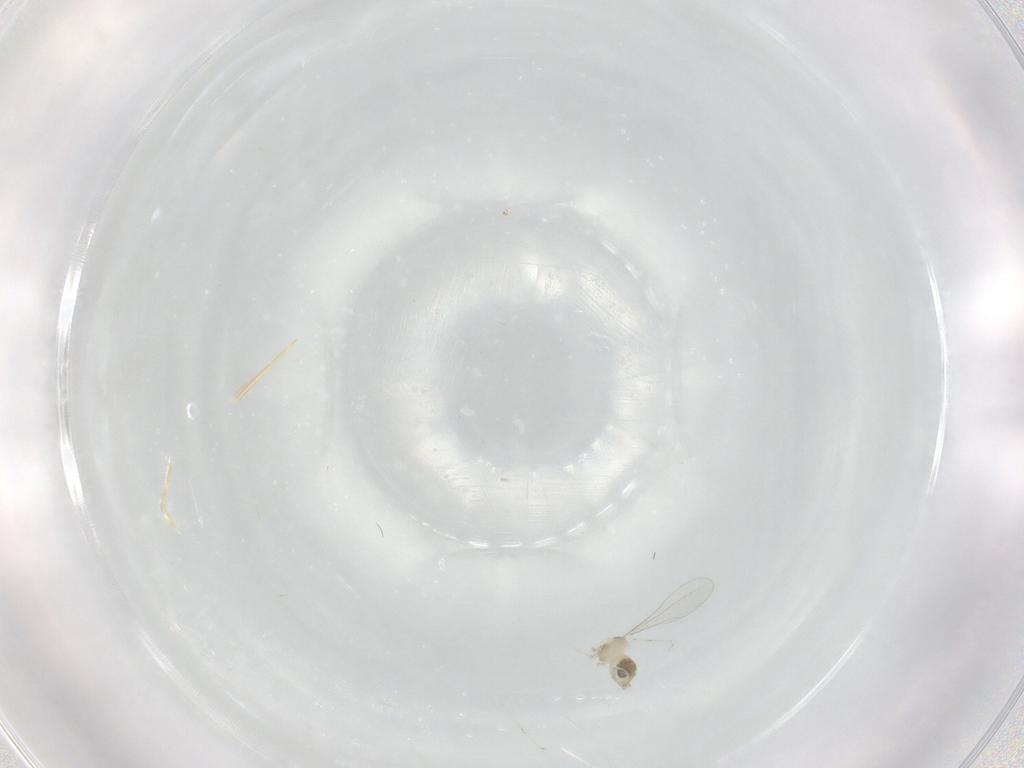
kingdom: Animalia
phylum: Arthropoda
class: Insecta
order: Diptera
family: Cecidomyiidae
